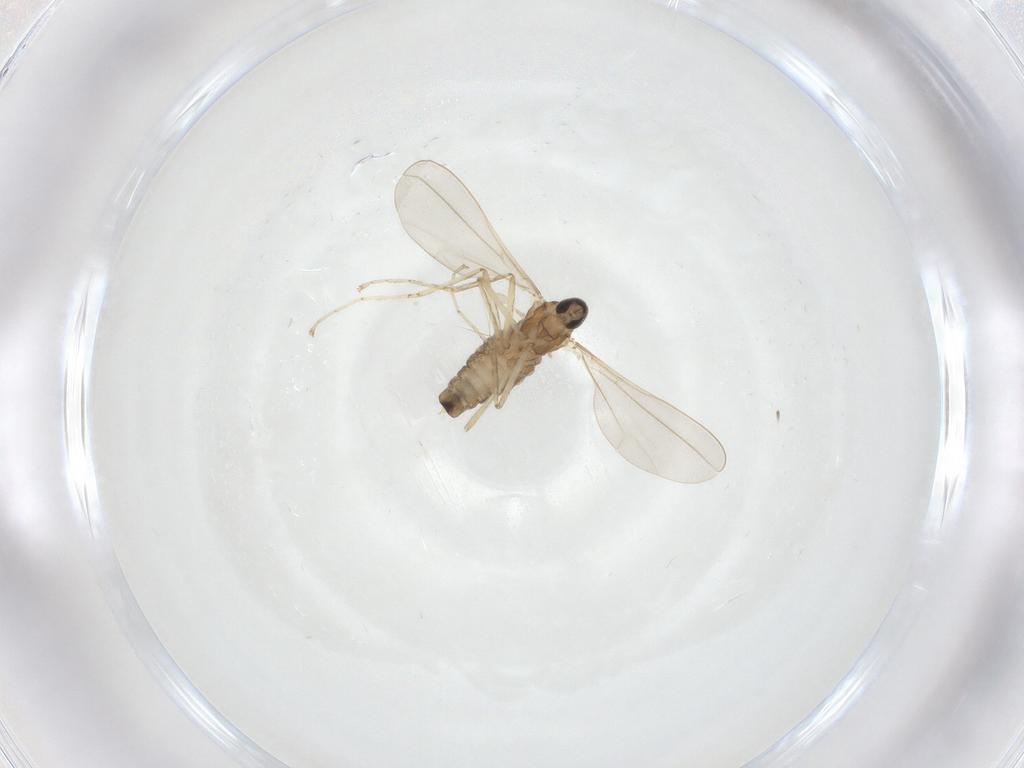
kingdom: Animalia
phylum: Arthropoda
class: Insecta
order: Diptera
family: Cecidomyiidae
